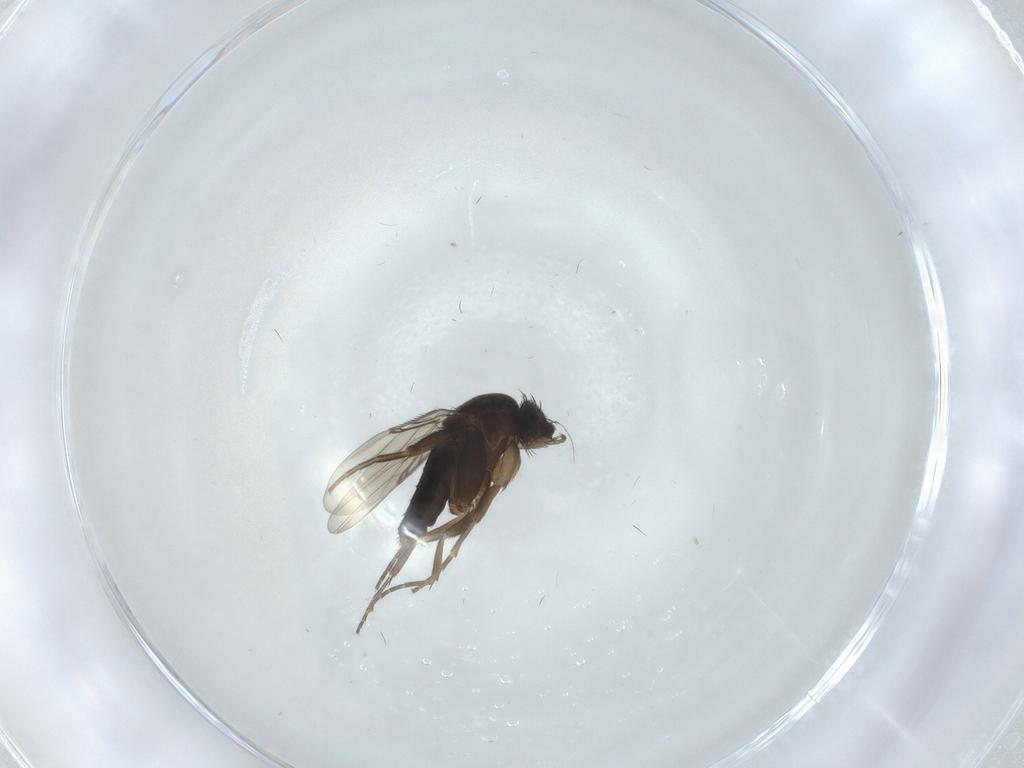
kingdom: Animalia
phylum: Arthropoda
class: Insecta
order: Diptera
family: Phoridae
